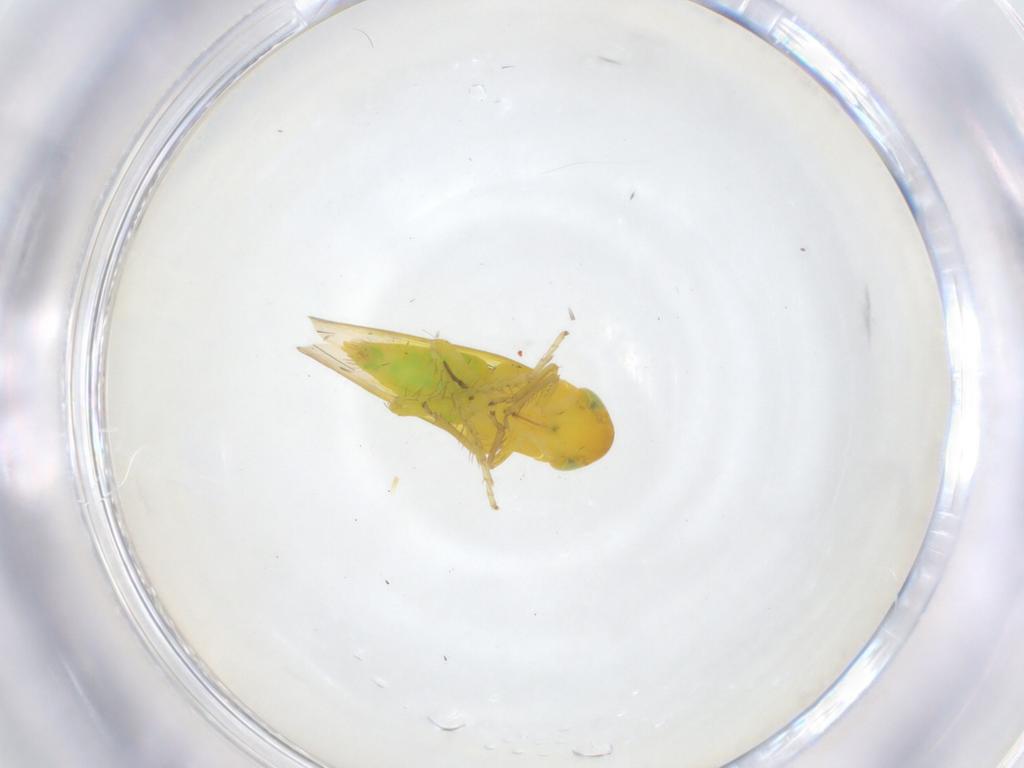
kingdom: Animalia
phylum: Arthropoda
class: Insecta
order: Hemiptera
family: Cicadellidae
